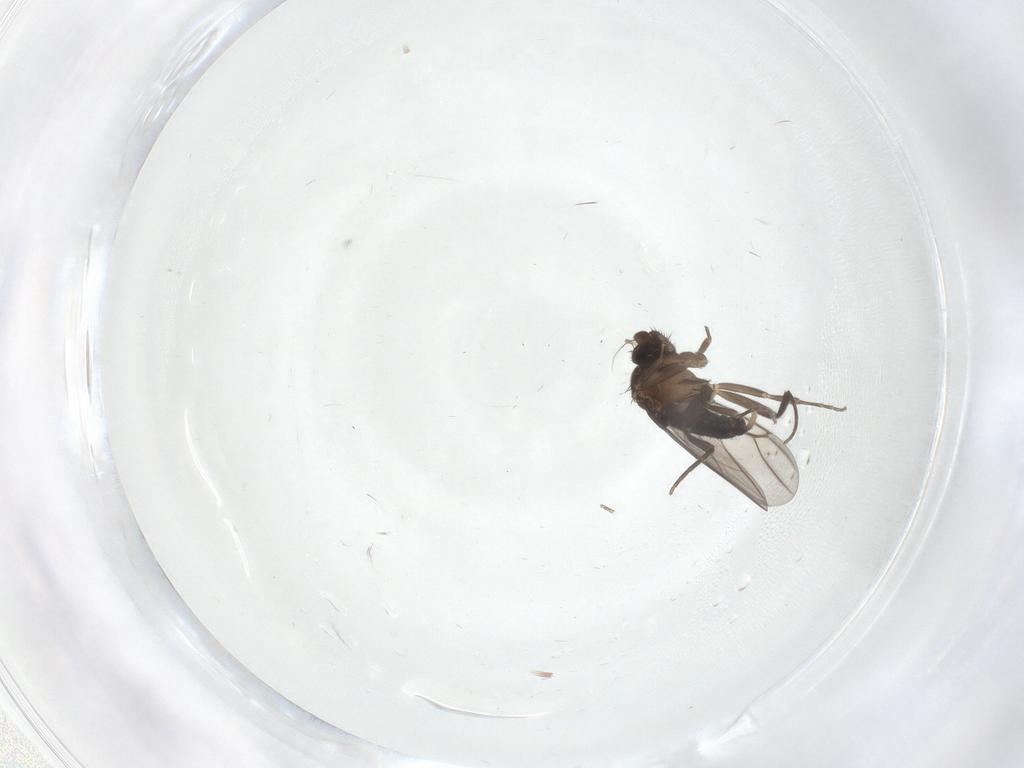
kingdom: Animalia
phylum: Arthropoda
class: Insecta
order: Diptera
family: Phoridae
